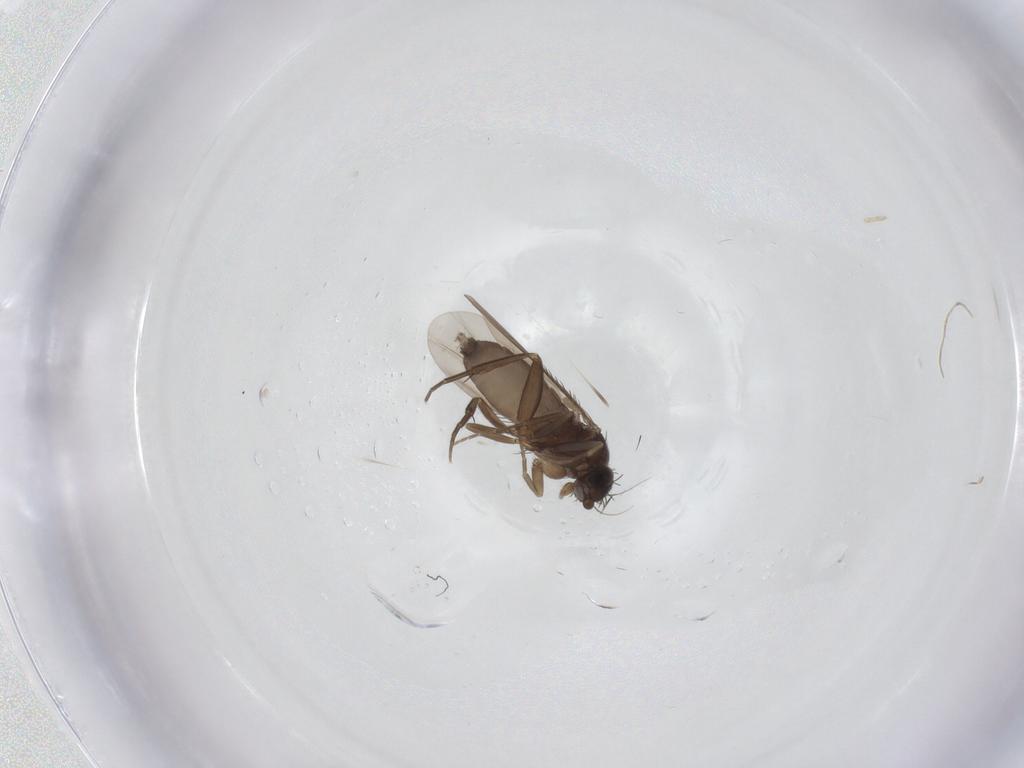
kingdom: Animalia
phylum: Arthropoda
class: Insecta
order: Diptera
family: Phoridae
